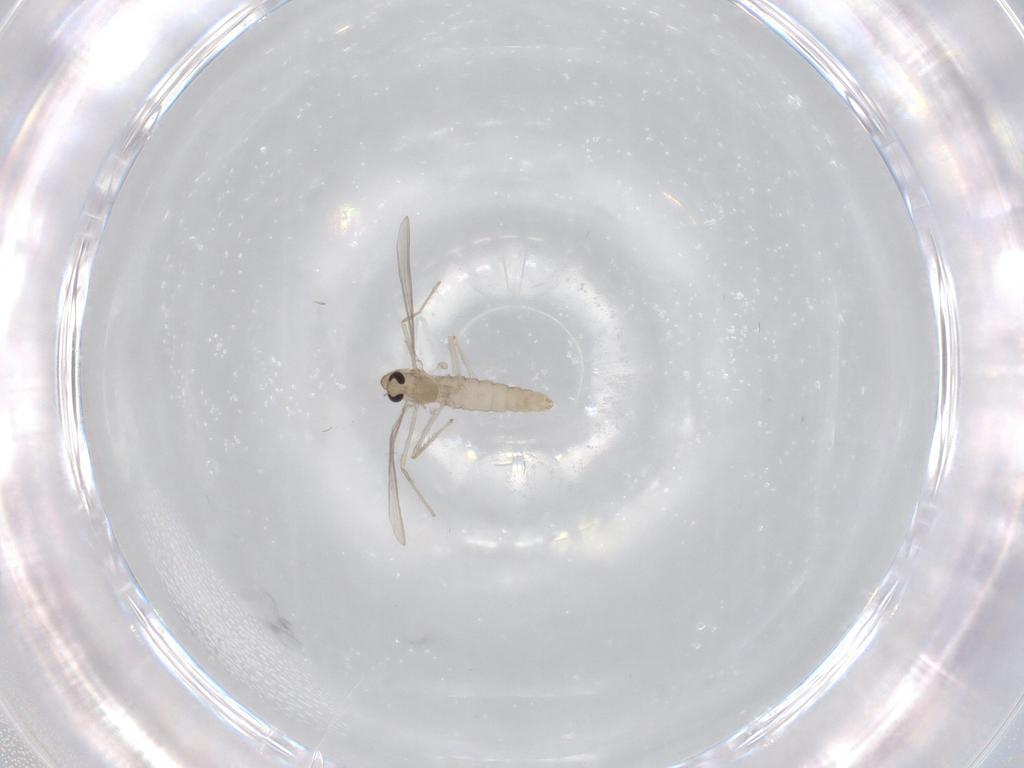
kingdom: Animalia
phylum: Arthropoda
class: Insecta
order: Diptera
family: Chironomidae
